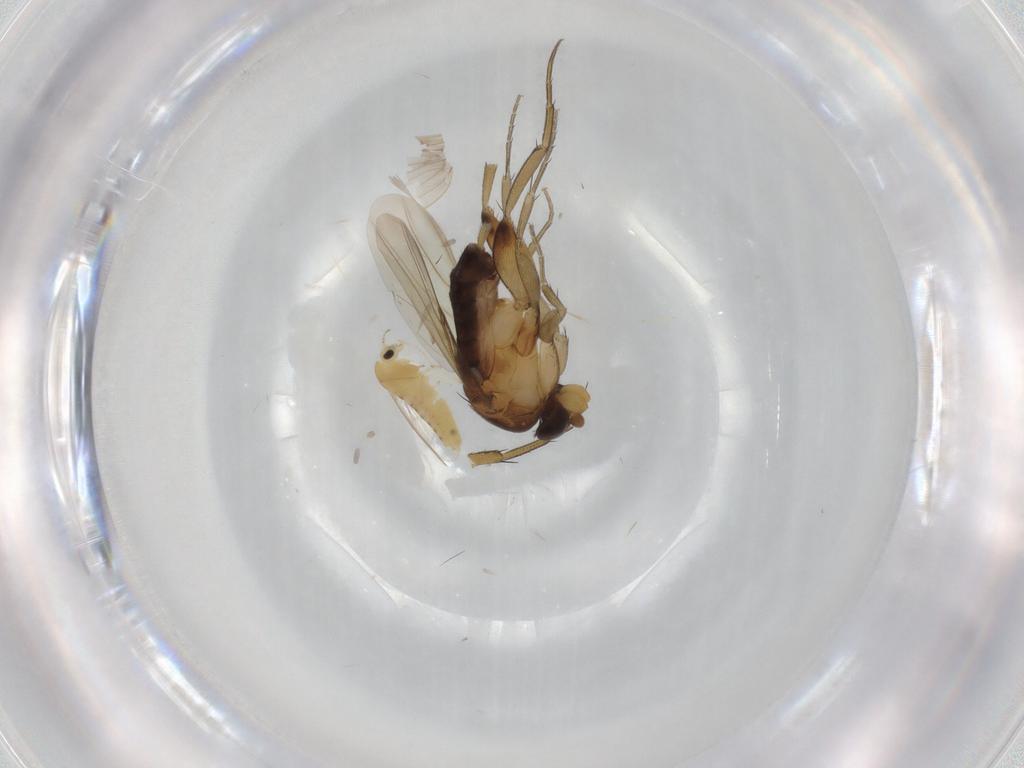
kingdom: Animalia
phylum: Arthropoda
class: Insecta
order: Diptera
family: Chironomidae
